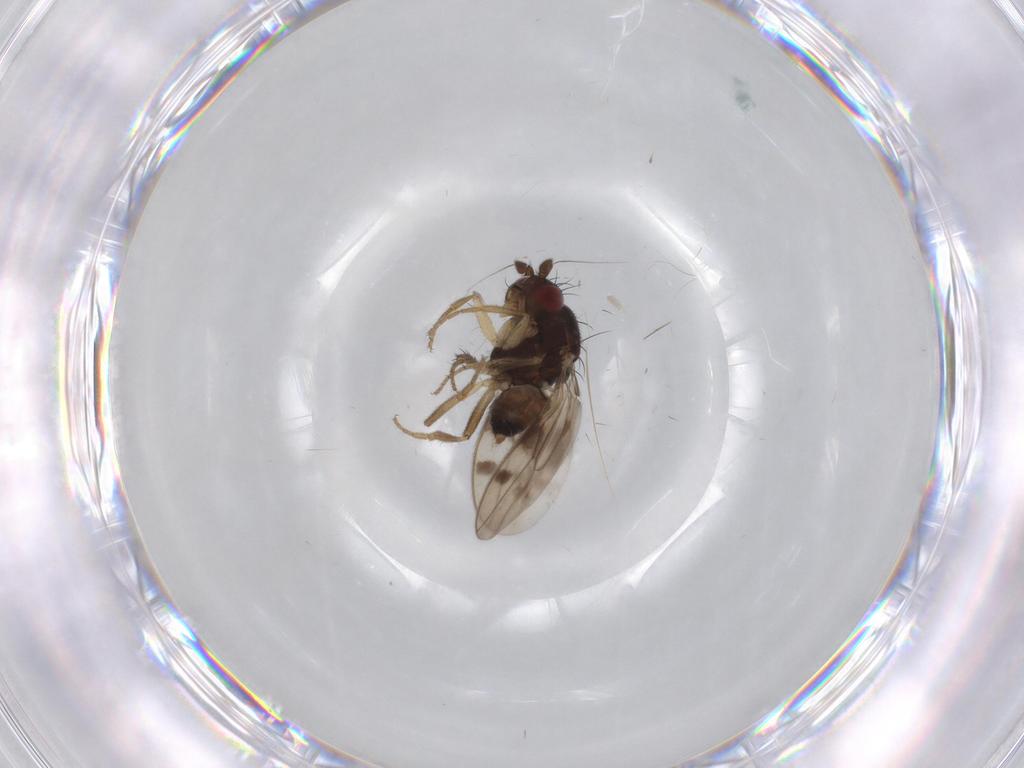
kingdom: Animalia
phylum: Arthropoda
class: Insecta
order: Diptera
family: Sphaeroceridae
